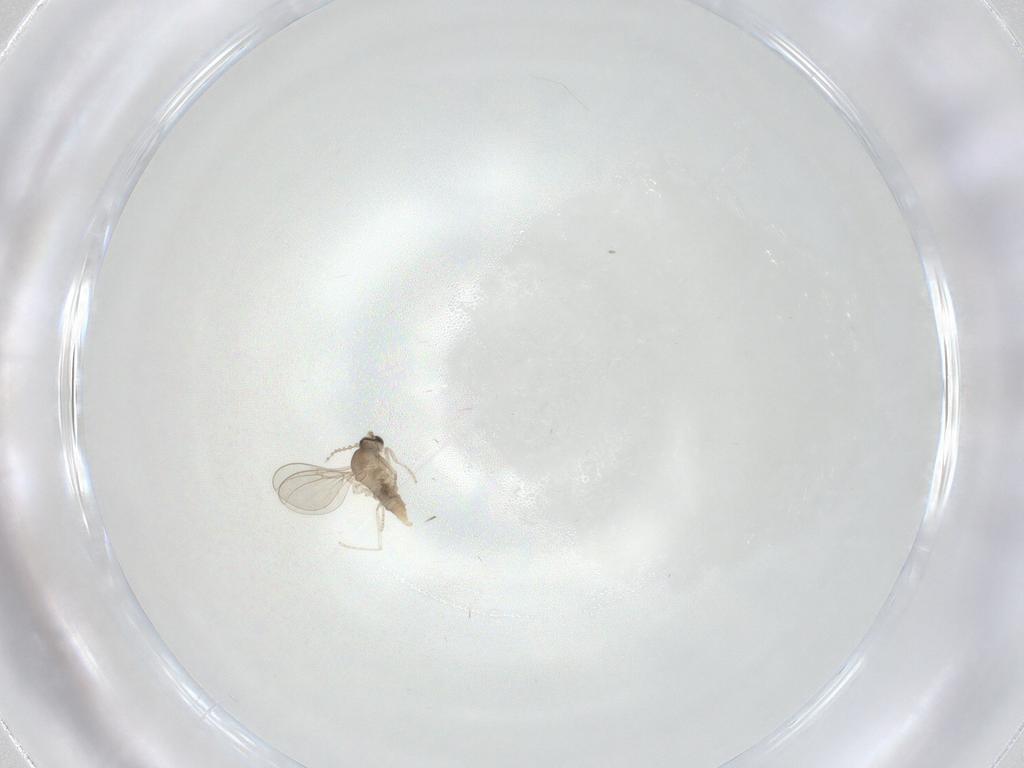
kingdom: Animalia
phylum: Arthropoda
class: Insecta
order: Diptera
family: Cecidomyiidae
